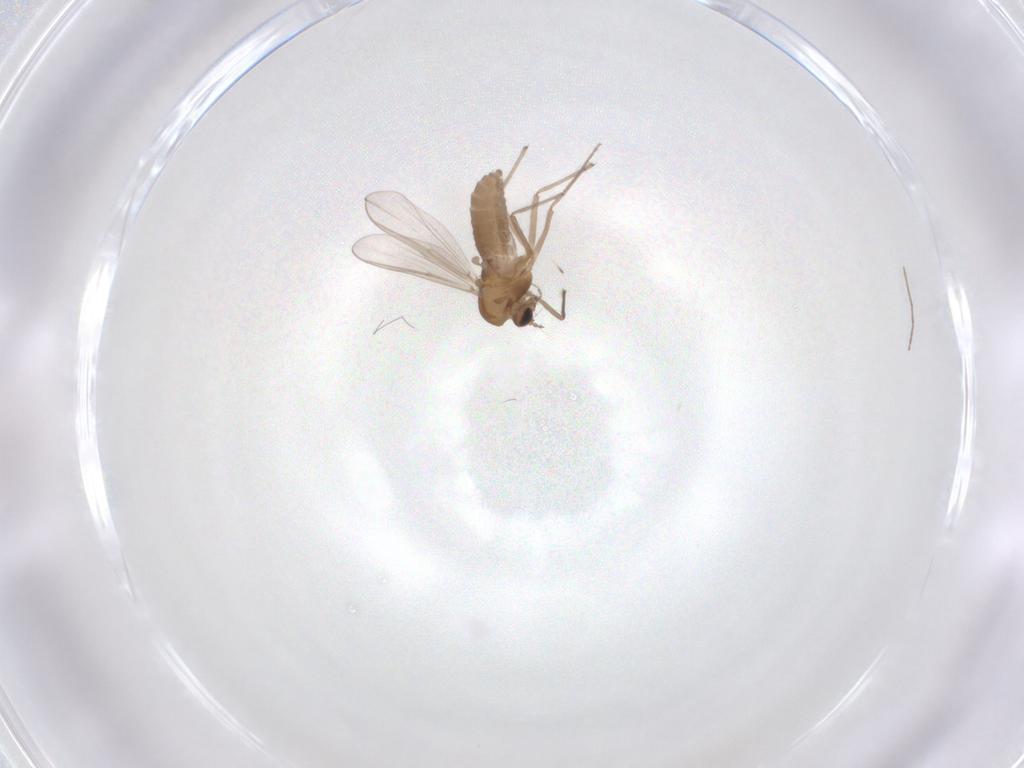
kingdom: Animalia
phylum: Arthropoda
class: Insecta
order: Diptera
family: Chironomidae
